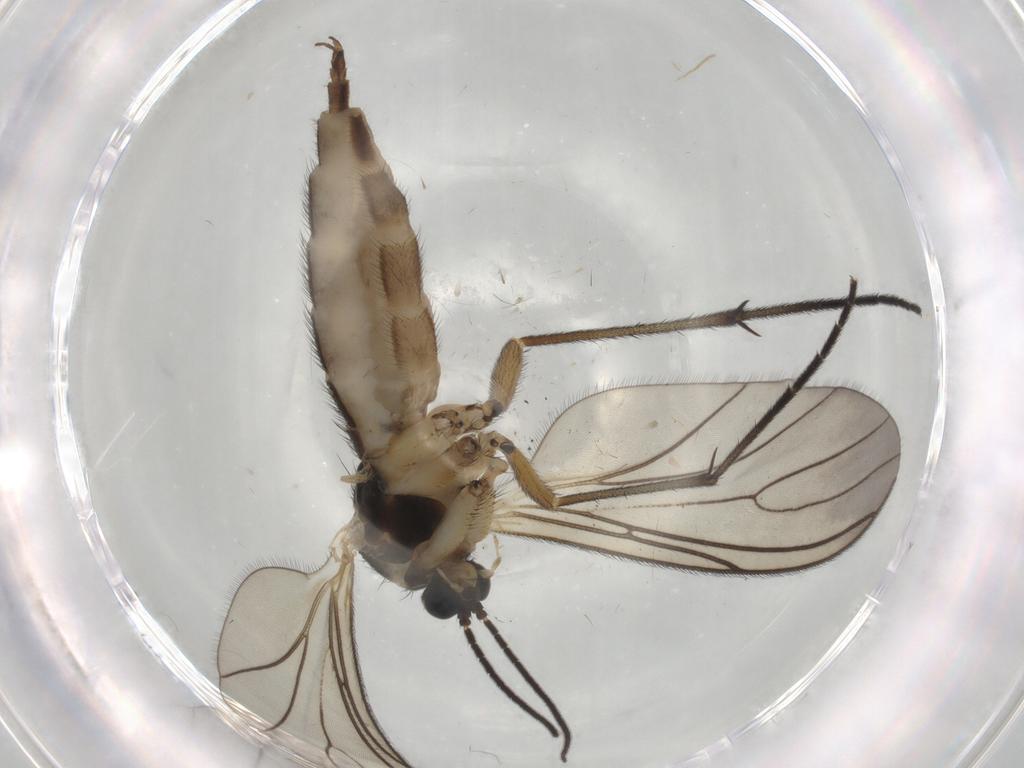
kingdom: Animalia
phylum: Arthropoda
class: Insecta
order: Diptera
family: Sciaridae
